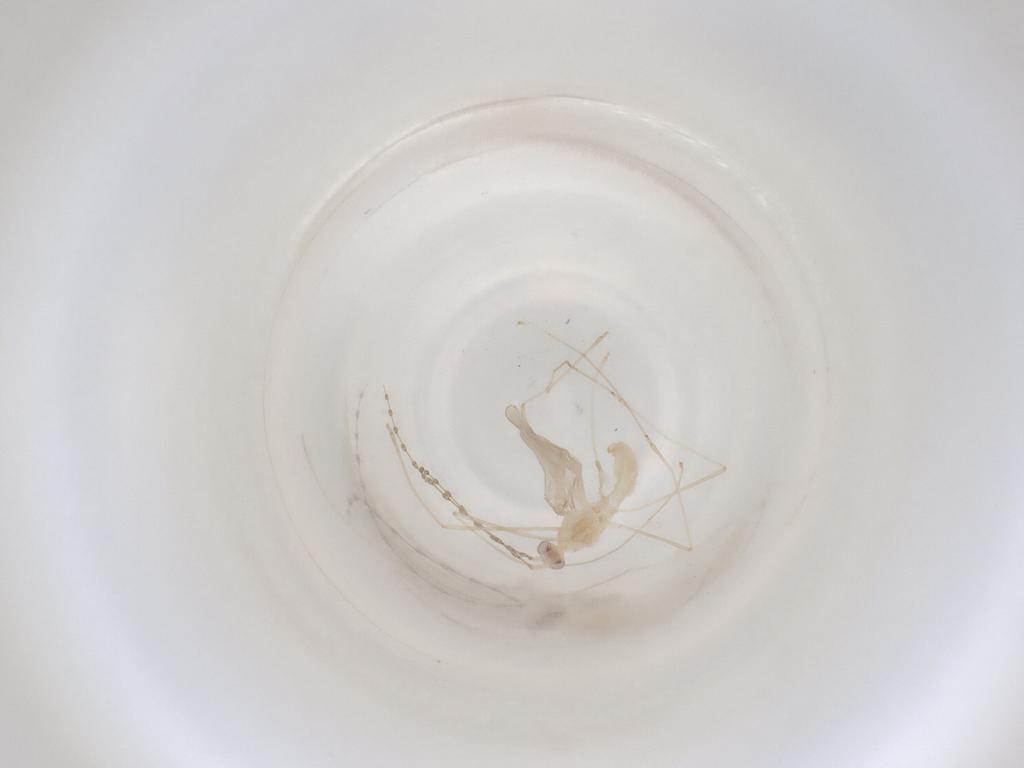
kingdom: Animalia
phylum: Arthropoda
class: Insecta
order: Diptera
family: Cecidomyiidae
